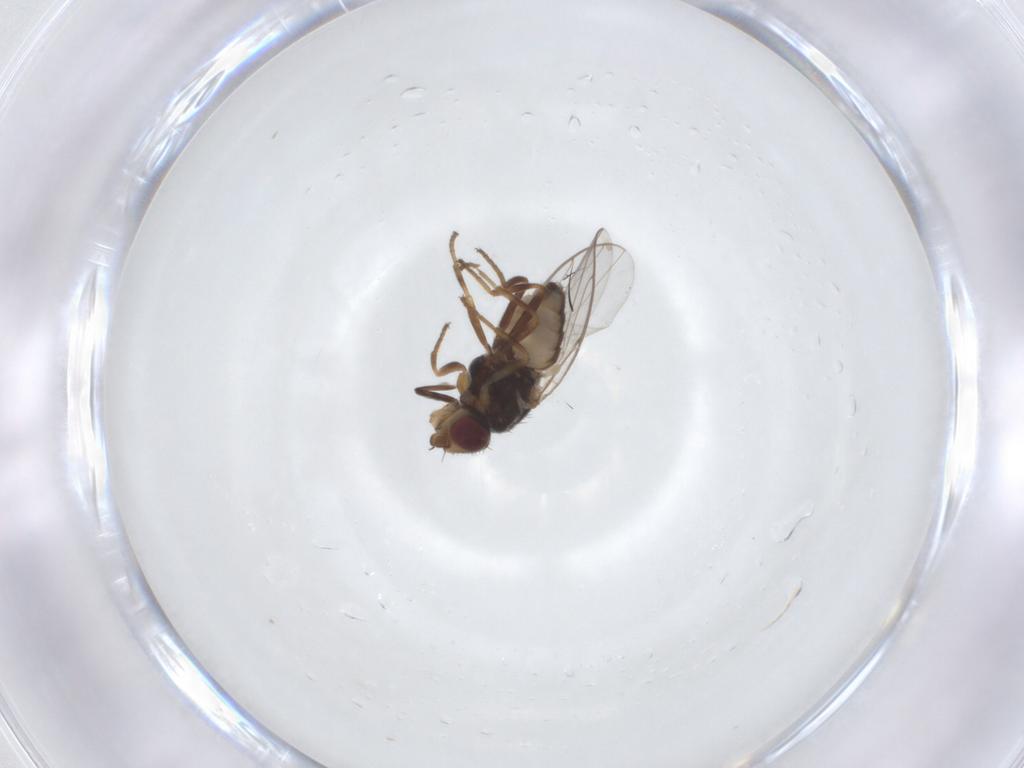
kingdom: Animalia
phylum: Arthropoda
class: Insecta
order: Diptera
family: Chloropidae
